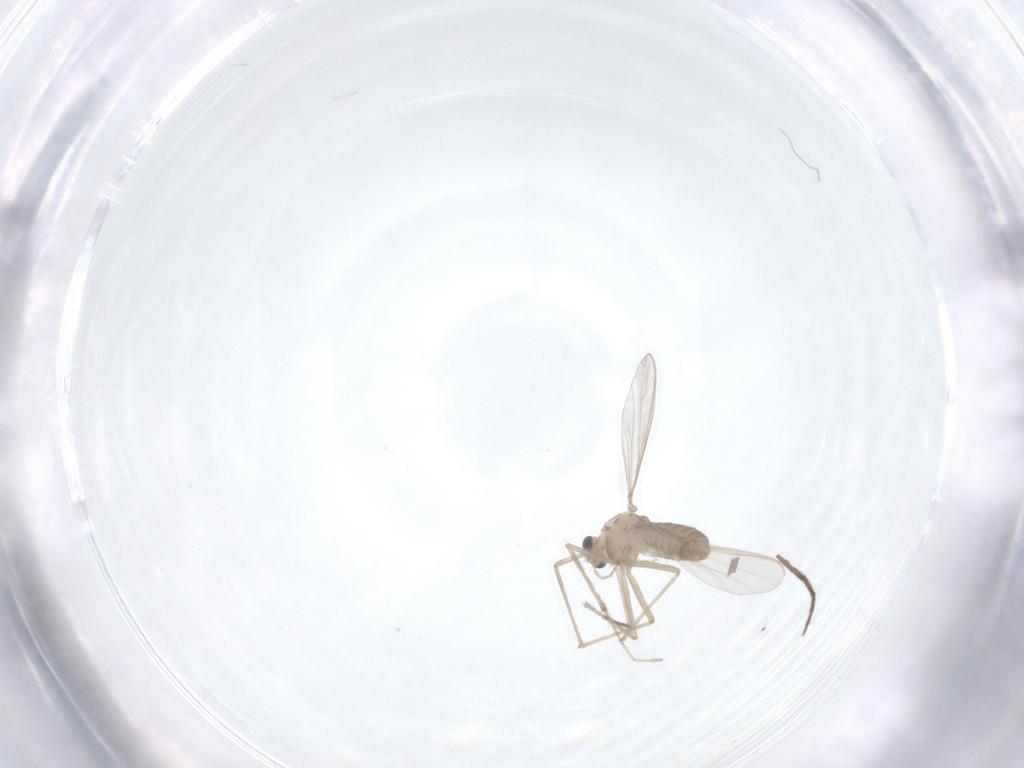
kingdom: Animalia
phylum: Arthropoda
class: Insecta
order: Diptera
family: Chironomidae
